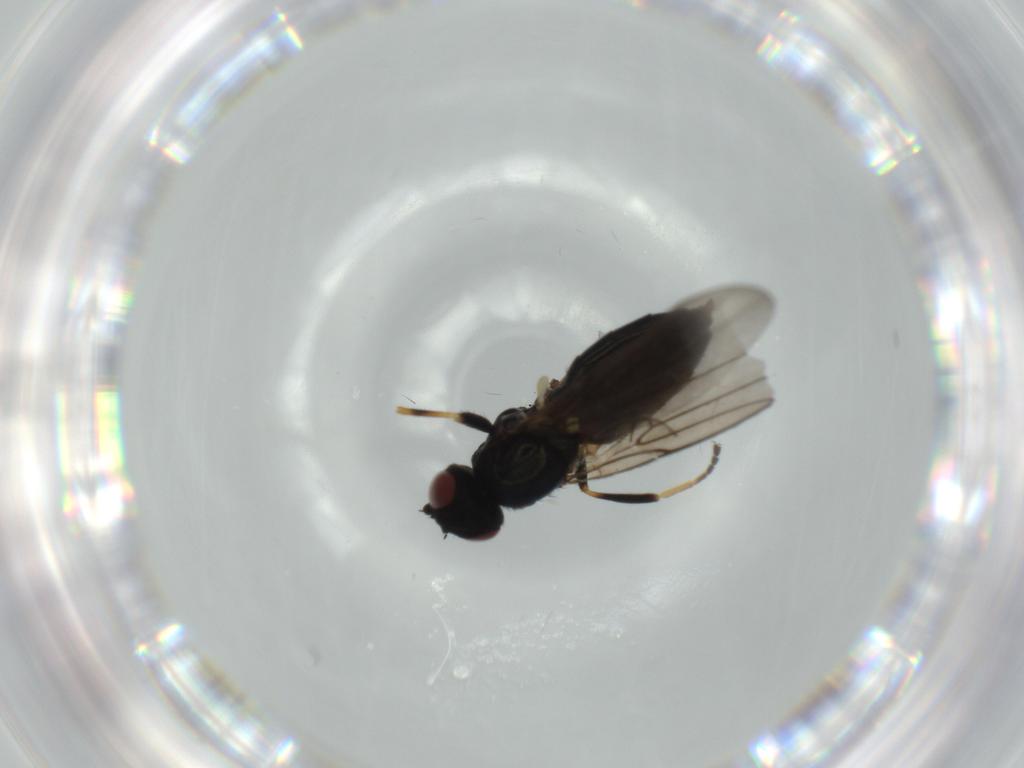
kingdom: Animalia
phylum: Arthropoda
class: Insecta
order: Diptera
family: Chloropidae
